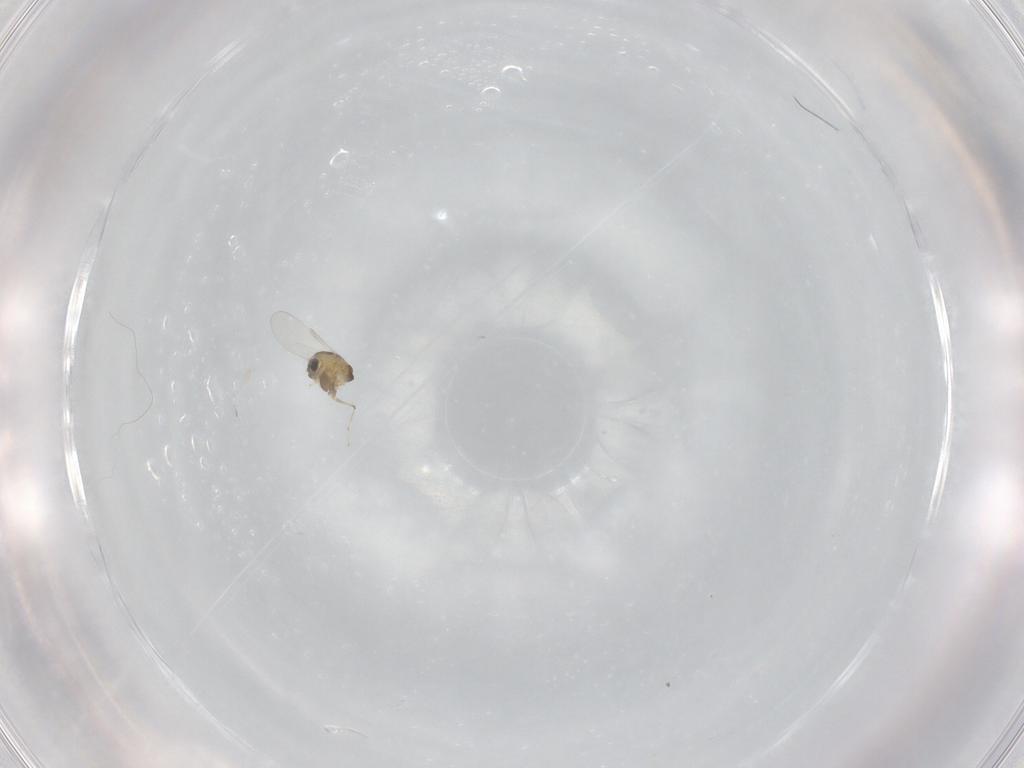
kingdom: Animalia
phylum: Arthropoda
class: Insecta
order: Diptera
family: Chironomidae
